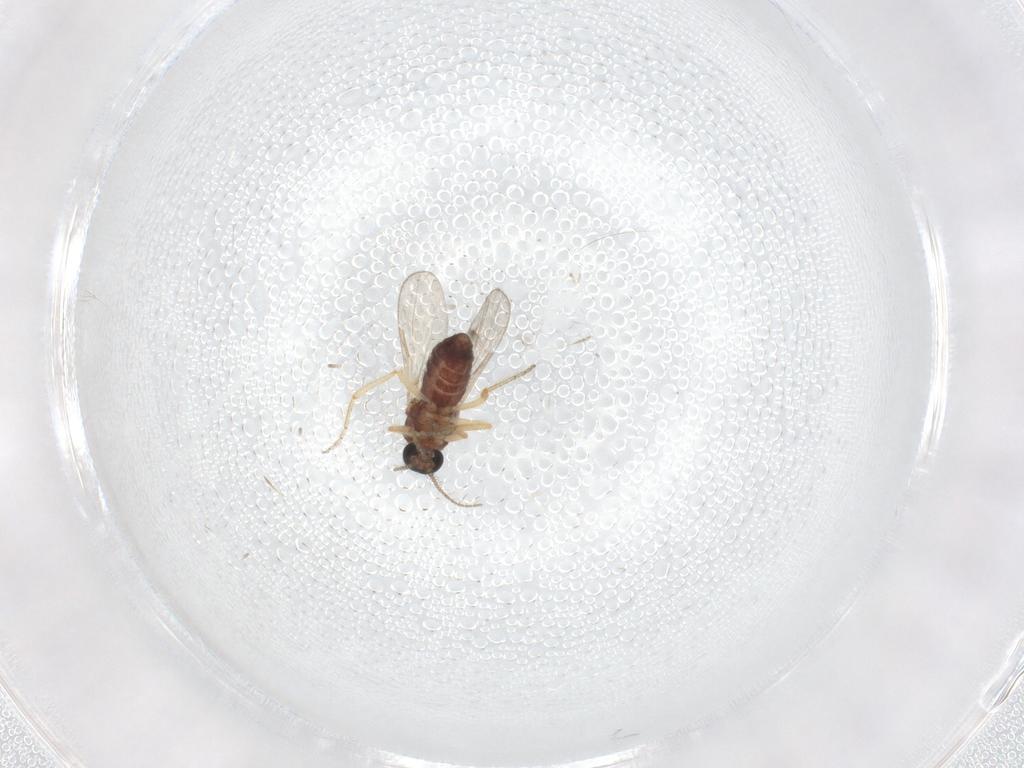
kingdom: Animalia
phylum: Arthropoda
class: Insecta
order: Diptera
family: Ceratopogonidae
